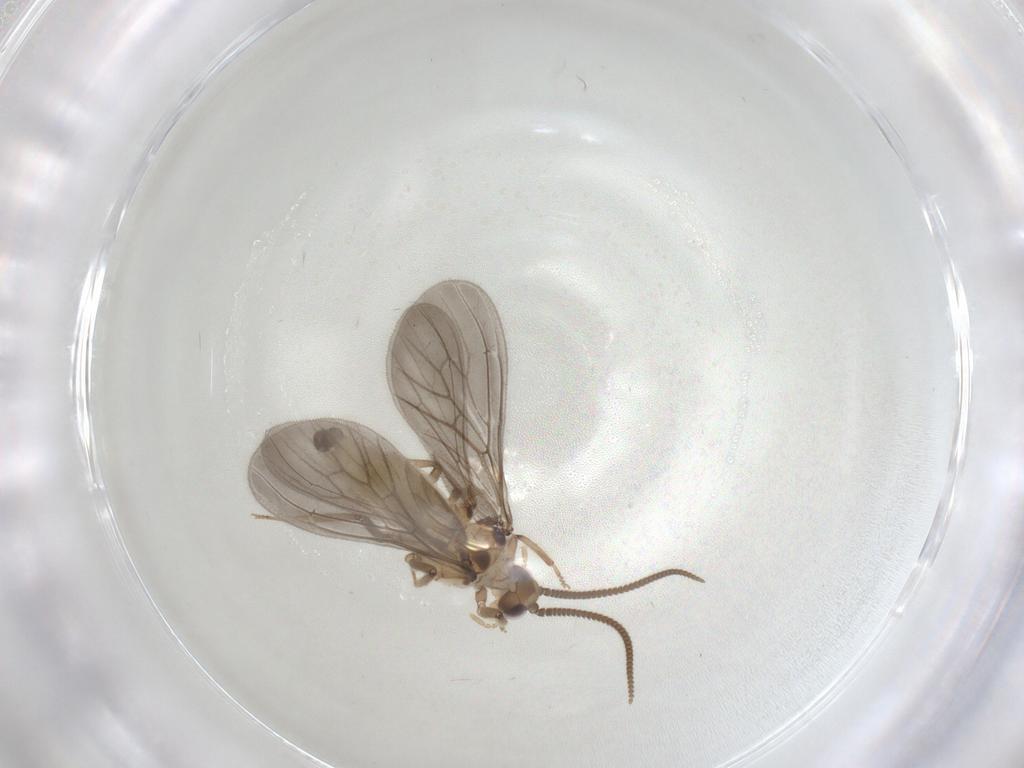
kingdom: Animalia
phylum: Arthropoda
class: Insecta
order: Neuroptera
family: Coniopterygidae
